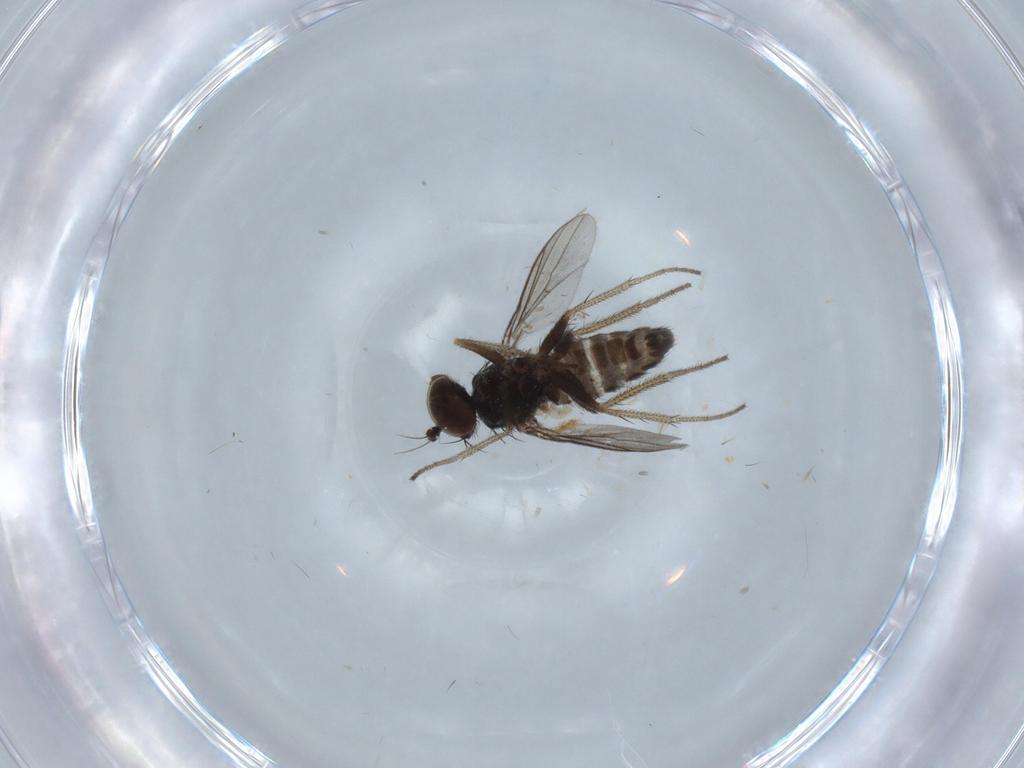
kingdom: Animalia
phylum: Arthropoda
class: Insecta
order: Diptera
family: Dolichopodidae
